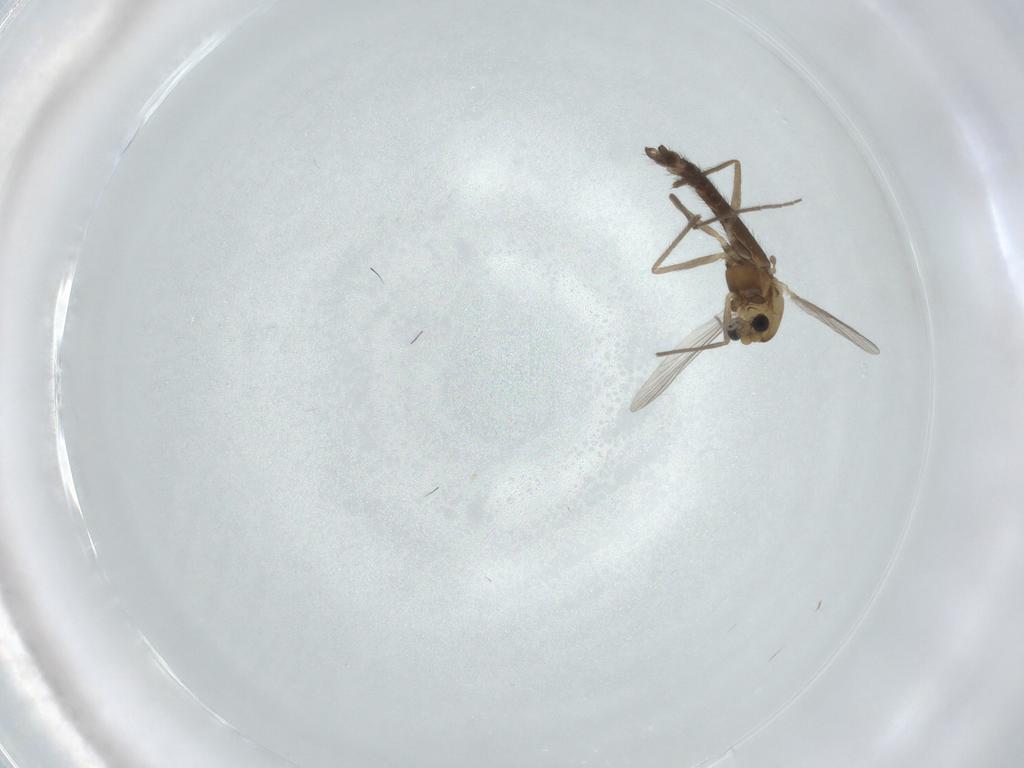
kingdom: Animalia
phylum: Arthropoda
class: Insecta
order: Diptera
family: Chironomidae
